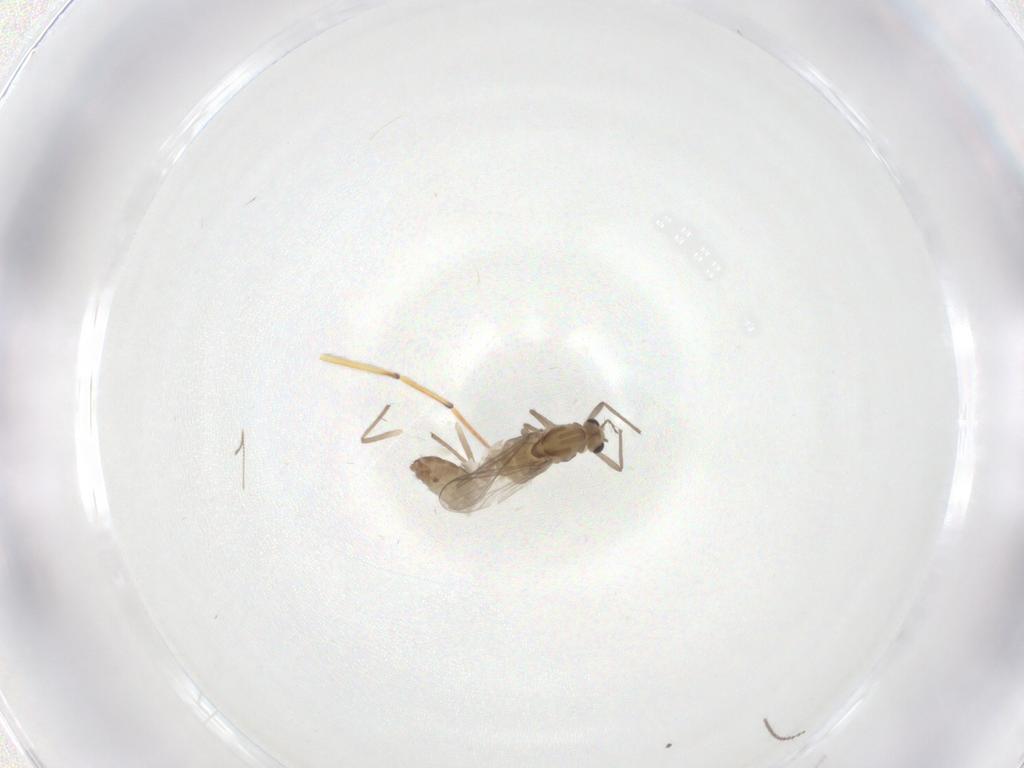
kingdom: Animalia
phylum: Arthropoda
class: Insecta
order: Diptera
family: Chironomidae
